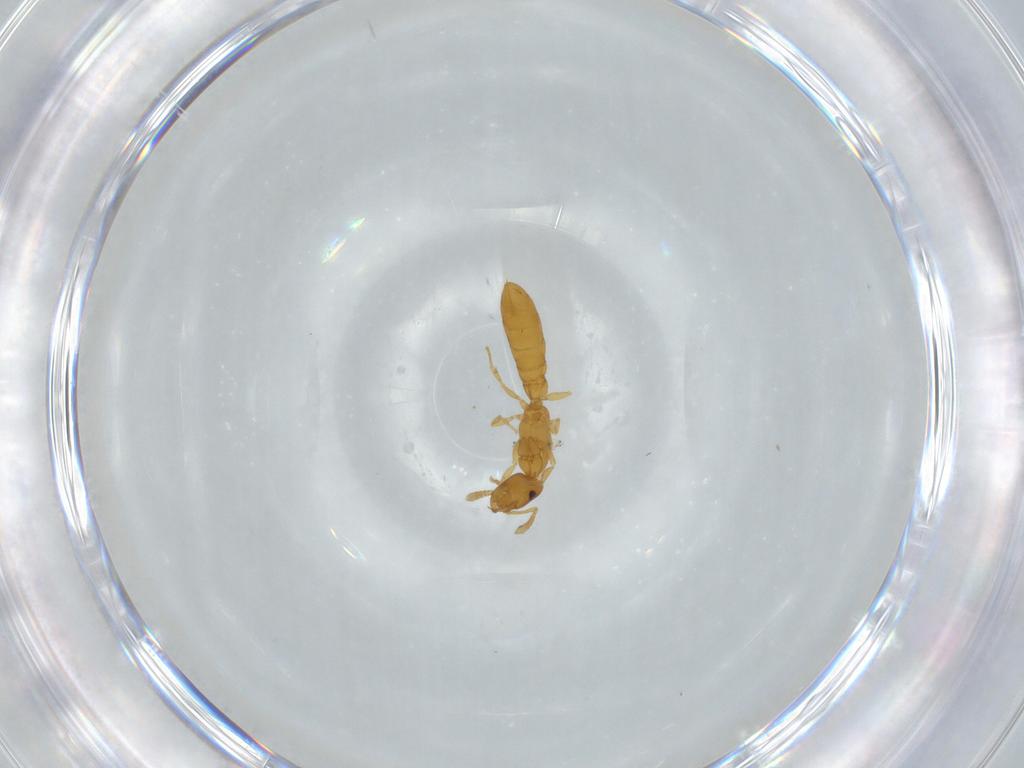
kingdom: Animalia
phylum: Arthropoda
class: Insecta
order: Hymenoptera
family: Formicidae
